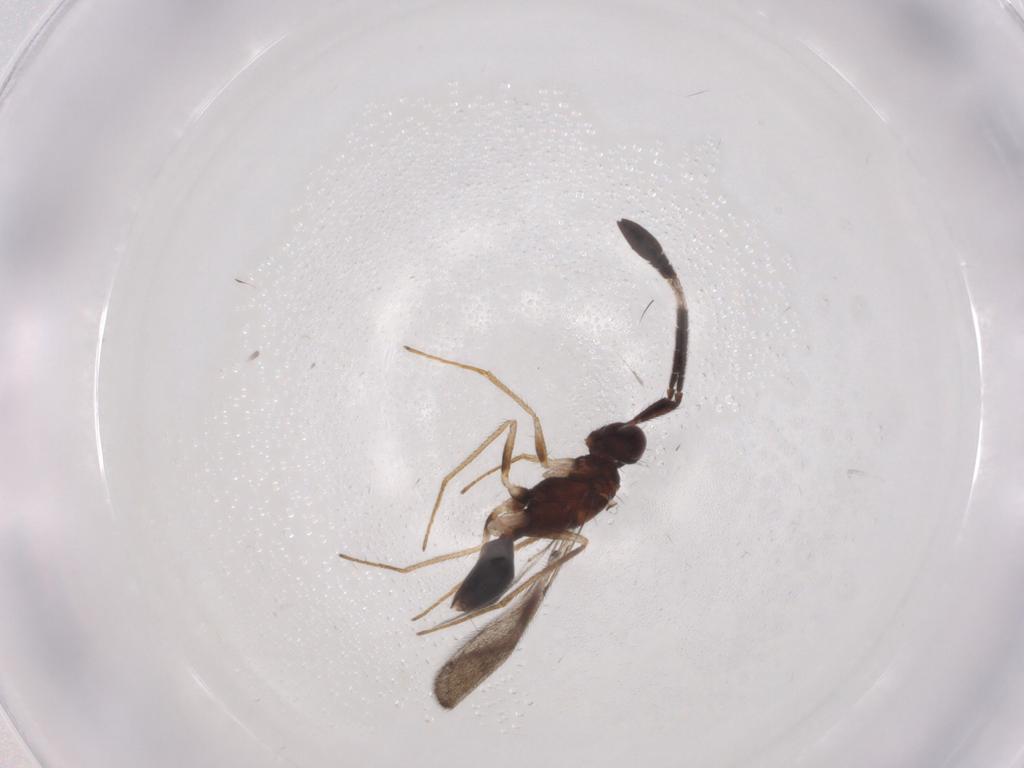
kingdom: Animalia
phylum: Arthropoda
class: Insecta
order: Hymenoptera
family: Mymaridae
